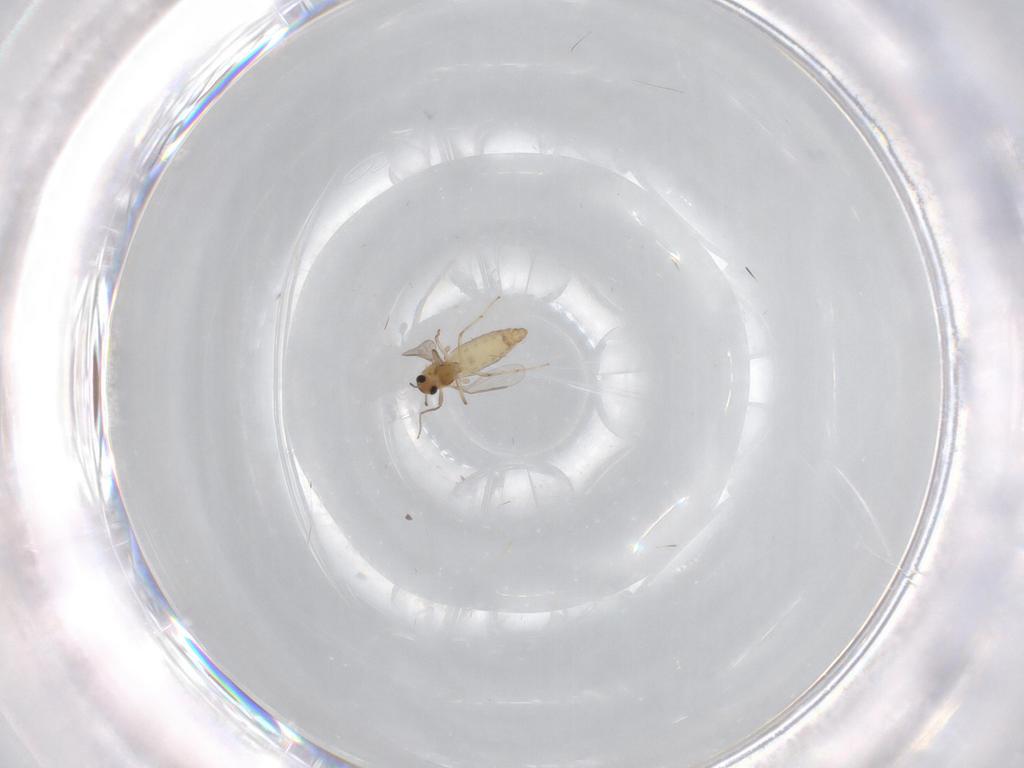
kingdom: Animalia
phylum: Arthropoda
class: Insecta
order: Diptera
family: Chironomidae
